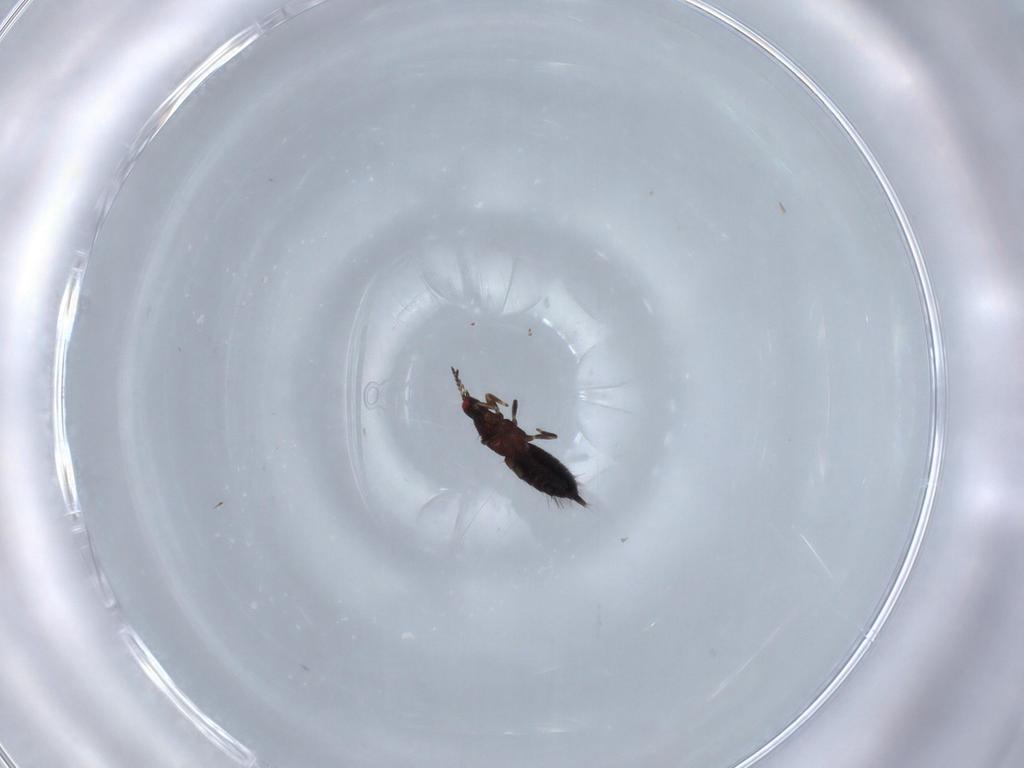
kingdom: Animalia
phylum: Arthropoda
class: Insecta
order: Thysanoptera
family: Phlaeothripidae
